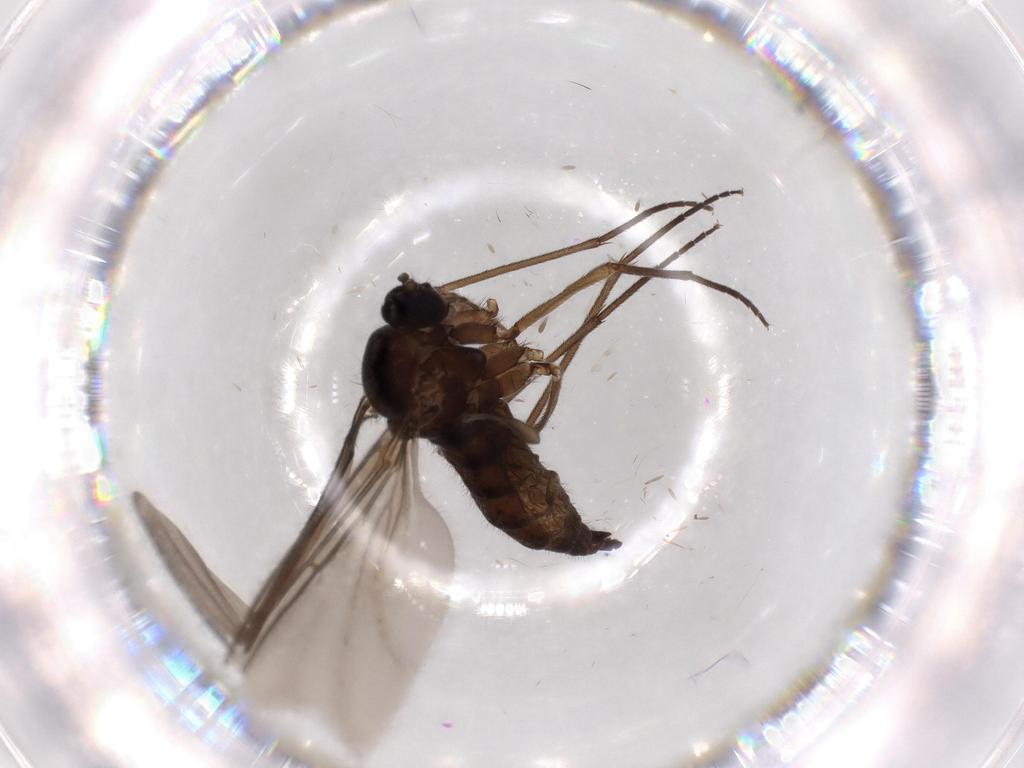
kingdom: Animalia
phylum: Arthropoda
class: Insecta
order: Diptera
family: Sciaridae
